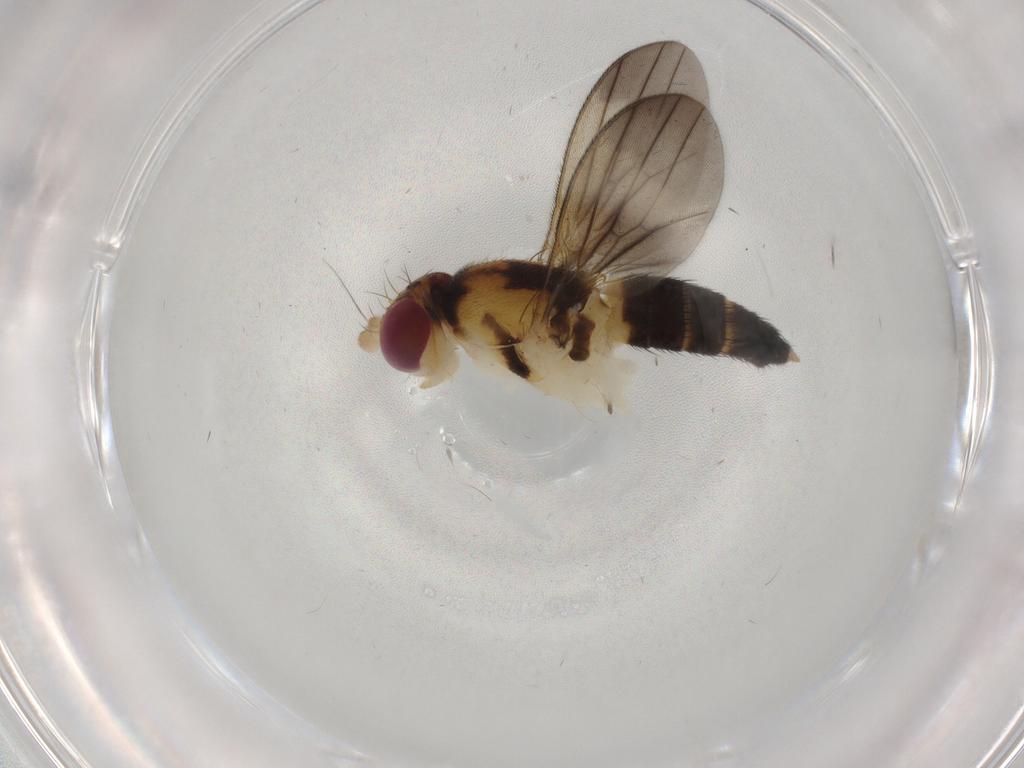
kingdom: Animalia
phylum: Arthropoda
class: Insecta
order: Diptera
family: Clusiidae
